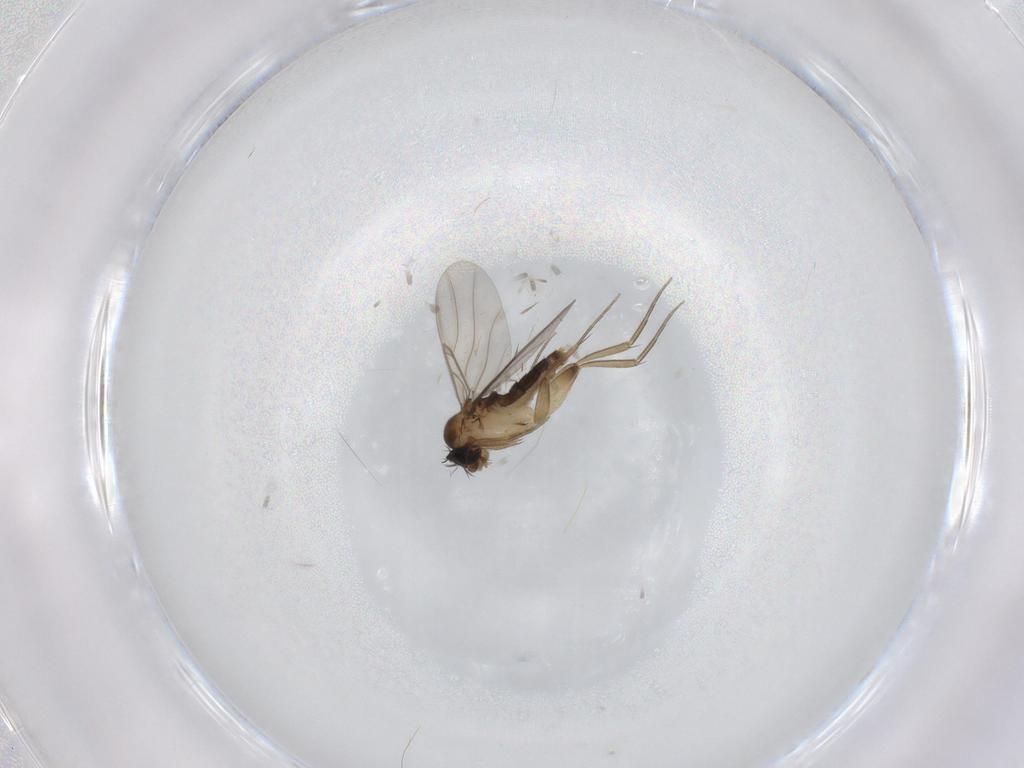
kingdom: Animalia
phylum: Arthropoda
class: Insecta
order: Diptera
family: Phoridae
